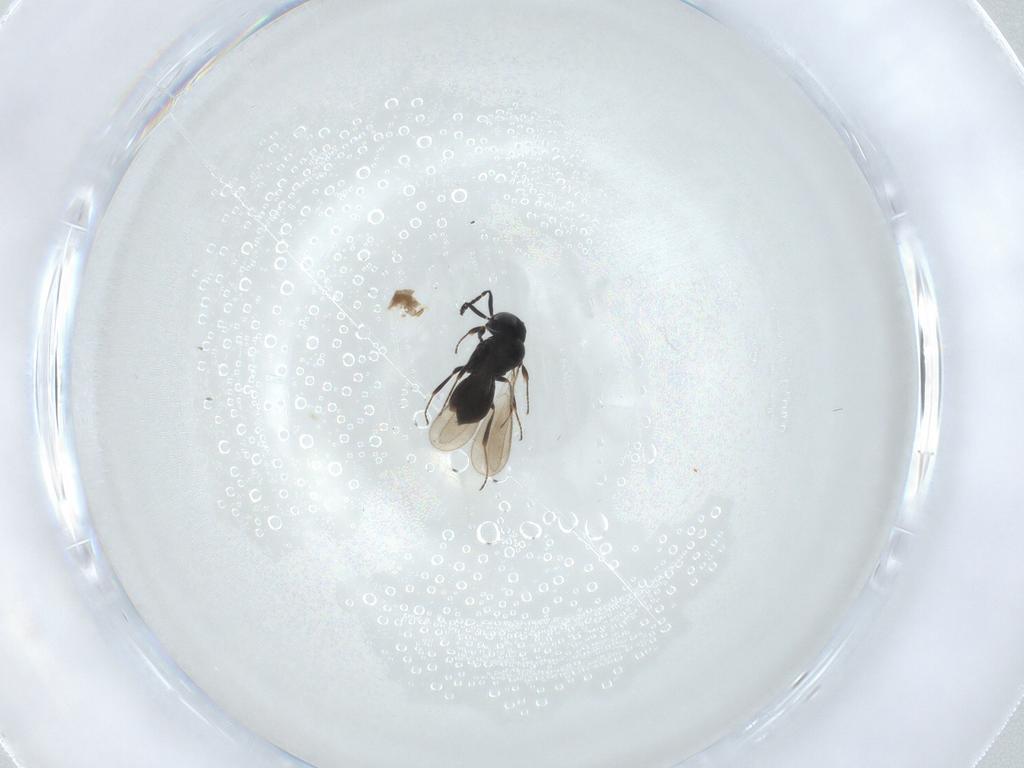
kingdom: Animalia
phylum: Arthropoda
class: Insecta
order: Hymenoptera
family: Scelionidae
